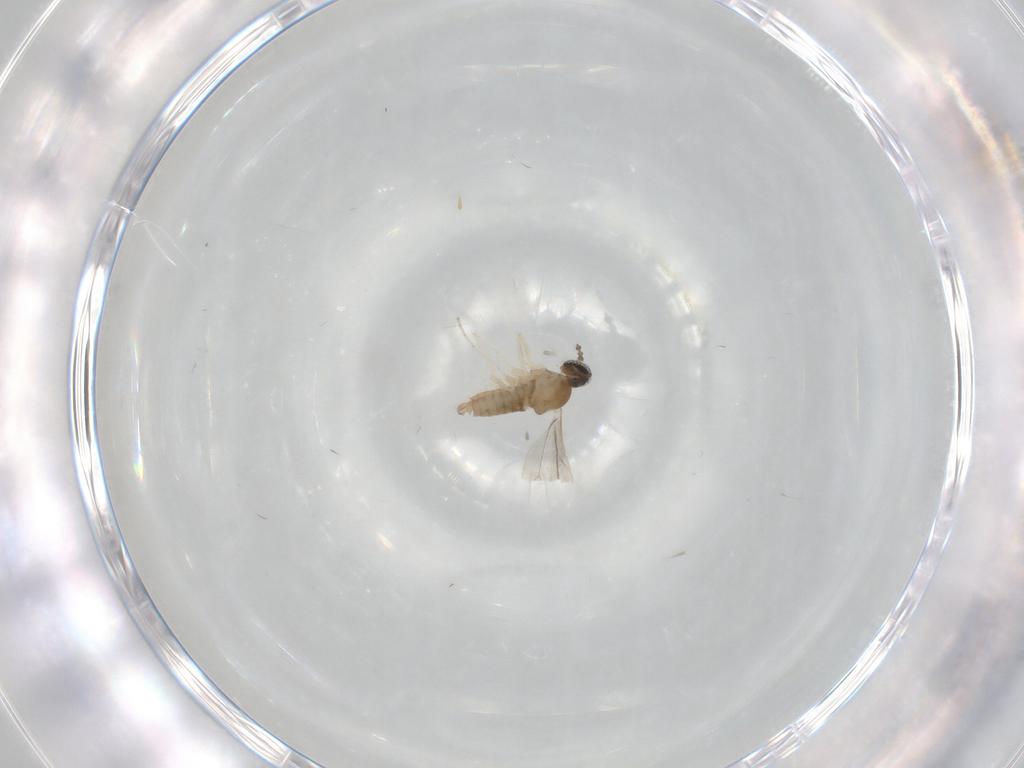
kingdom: Animalia
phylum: Arthropoda
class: Insecta
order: Diptera
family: Cecidomyiidae
